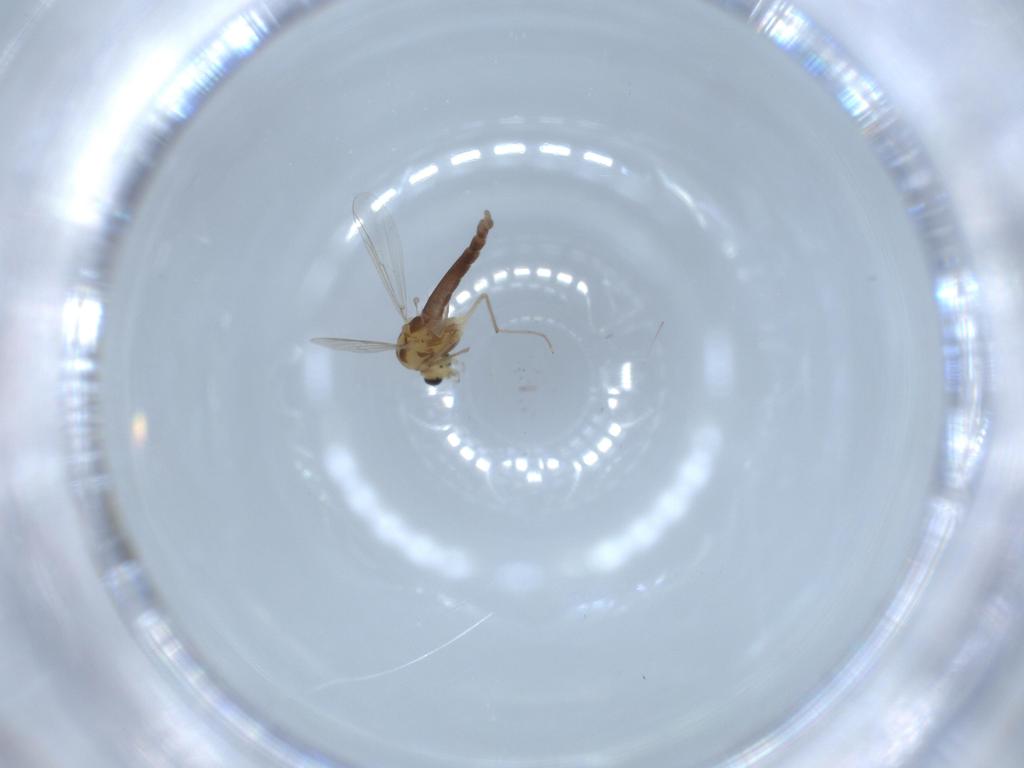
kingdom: Animalia
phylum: Arthropoda
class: Insecta
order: Diptera
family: Chironomidae
